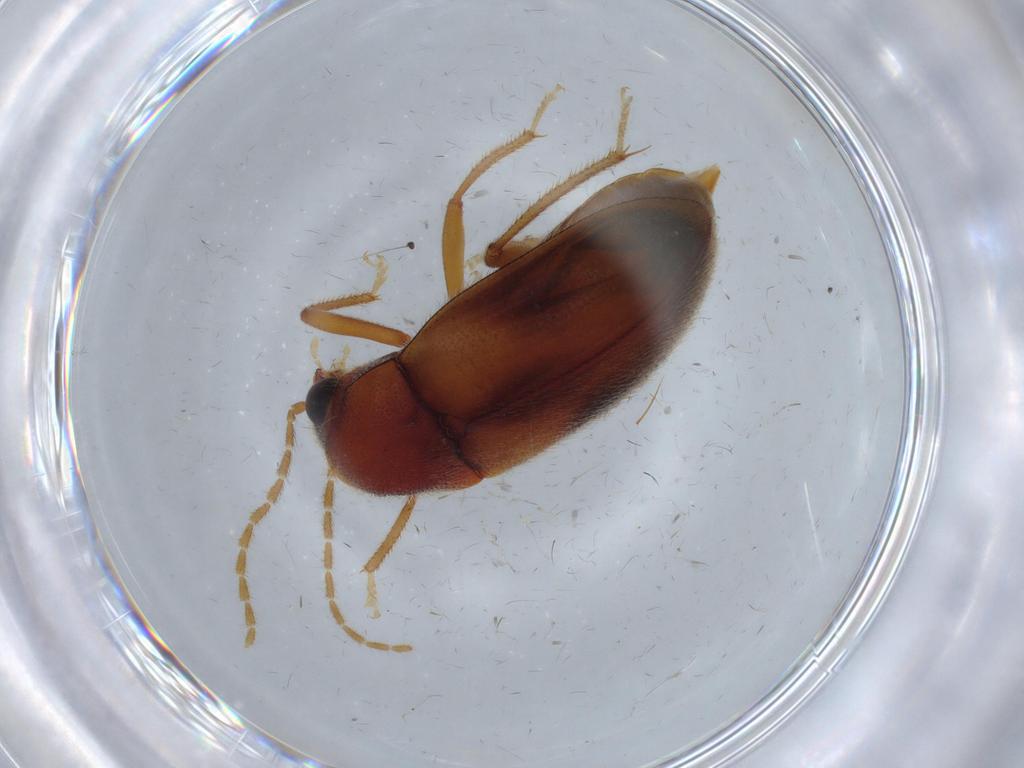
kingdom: Animalia
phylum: Arthropoda
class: Insecta
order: Coleoptera
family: Ptilodactylidae
